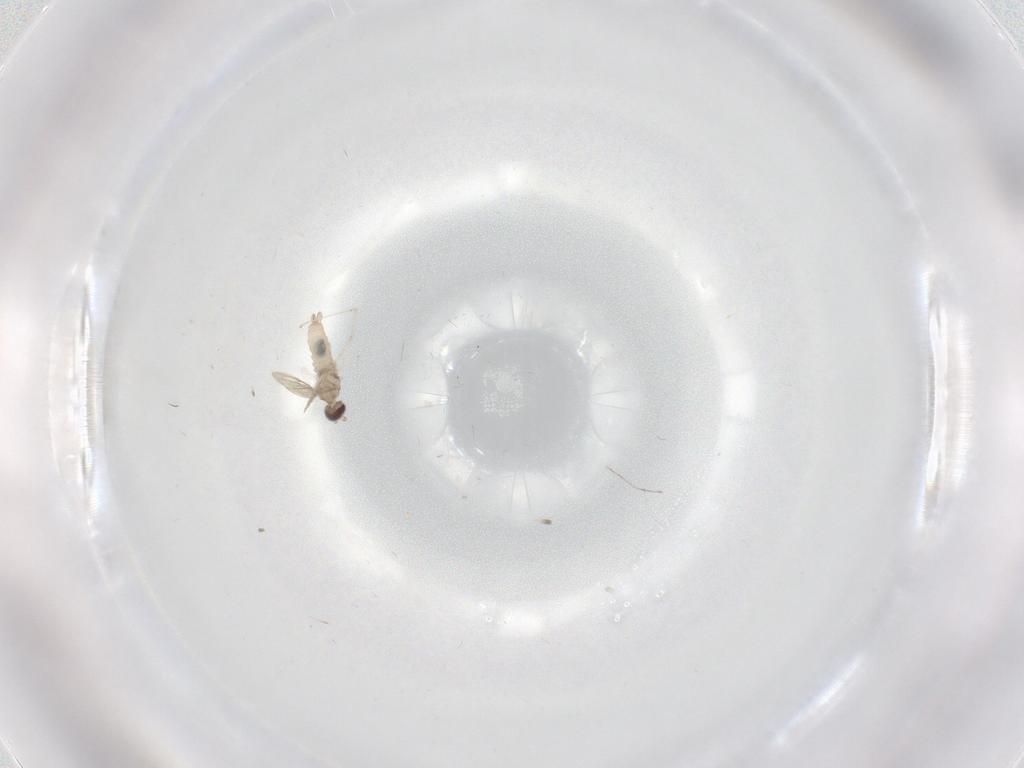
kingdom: Animalia
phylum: Arthropoda
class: Insecta
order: Diptera
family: Cecidomyiidae
